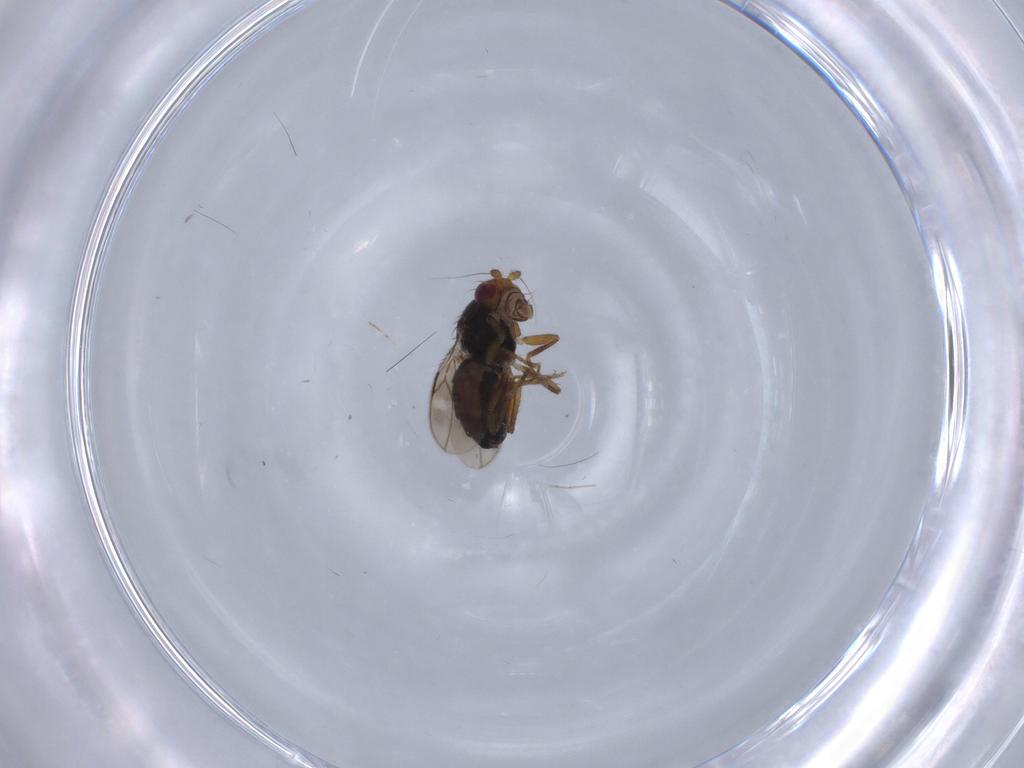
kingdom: Animalia
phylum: Arthropoda
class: Insecta
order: Diptera
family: Sphaeroceridae
